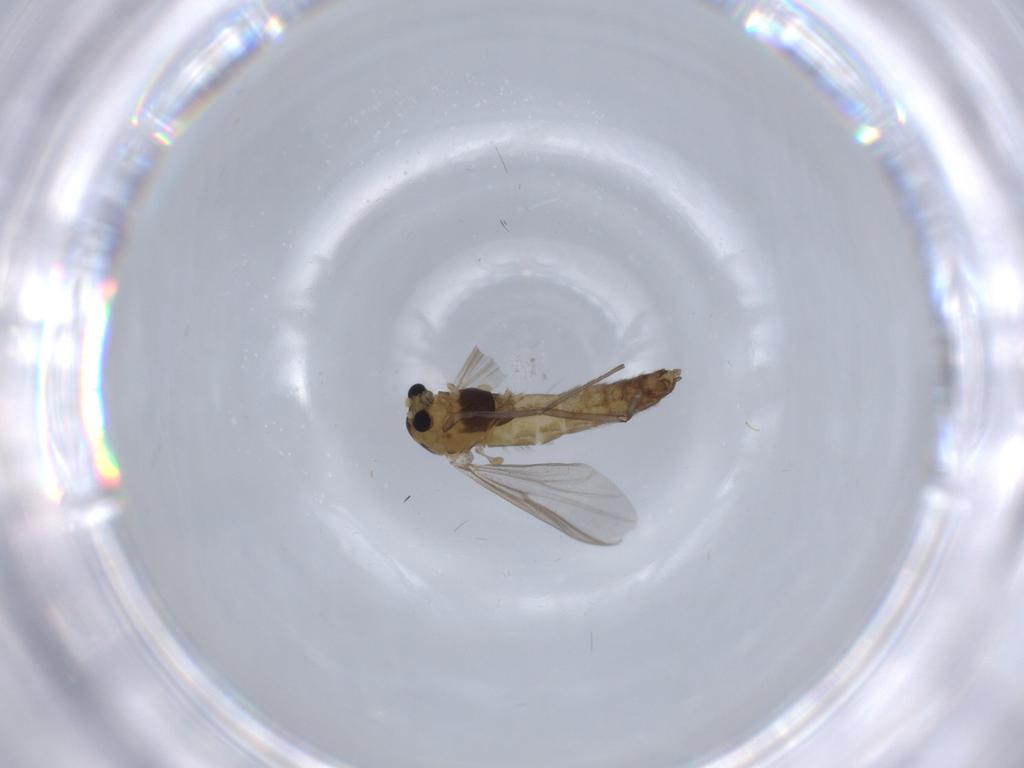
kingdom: Animalia
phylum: Arthropoda
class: Insecta
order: Diptera
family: Chironomidae
